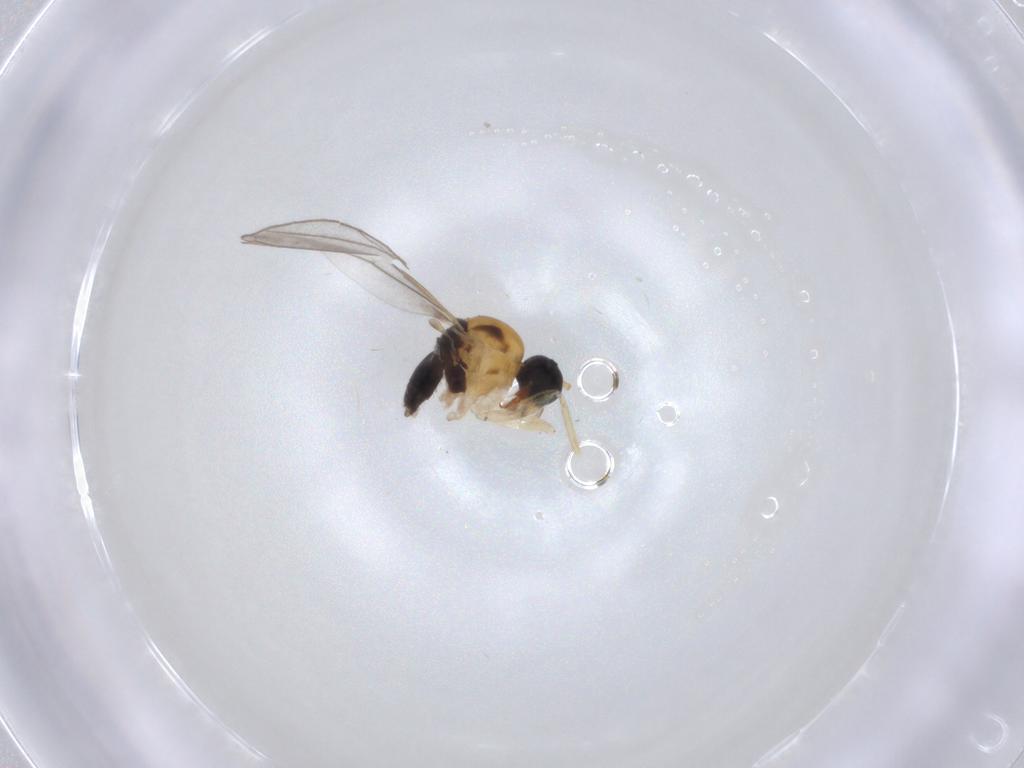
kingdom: Animalia
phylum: Arthropoda
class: Insecta
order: Diptera
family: Hybotidae
